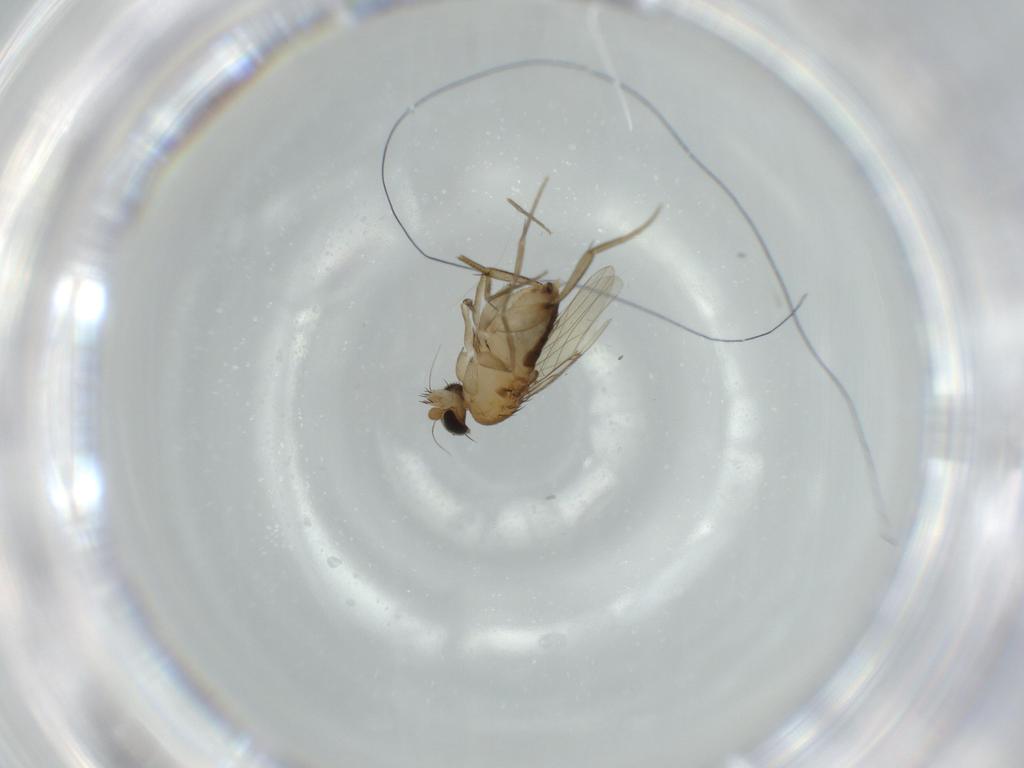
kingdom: Animalia
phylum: Arthropoda
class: Insecta
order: Diptera
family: Phoridae
